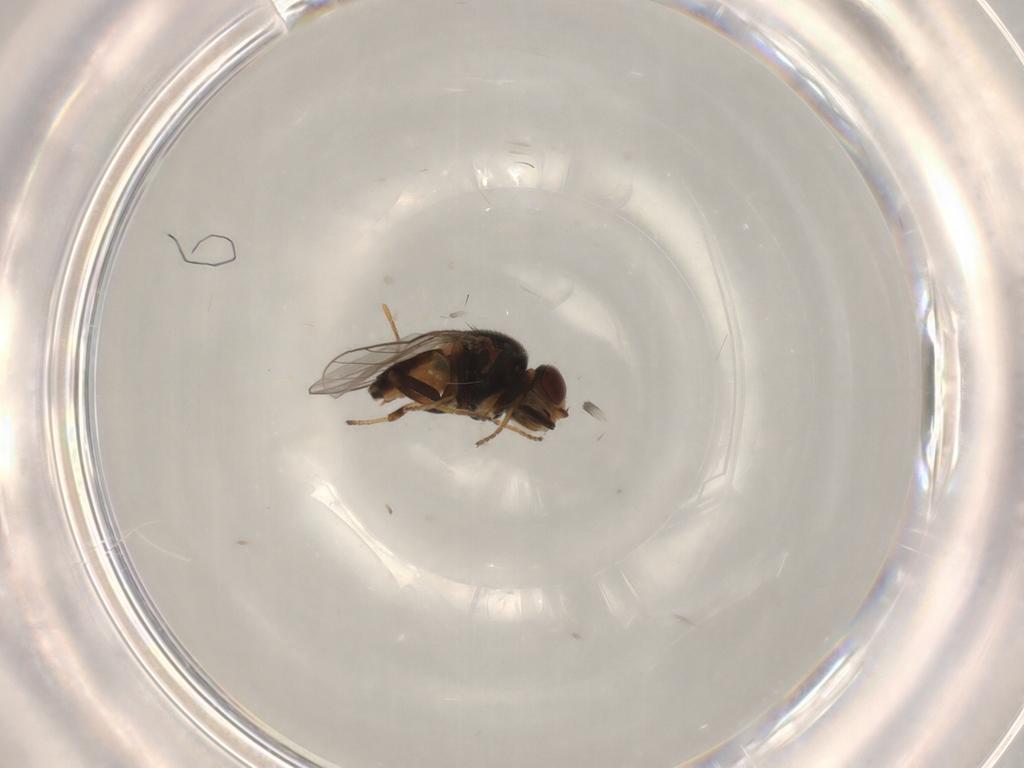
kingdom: Animalia
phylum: Arthropoda
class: Insecta
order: Diptera
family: Chloropidae
